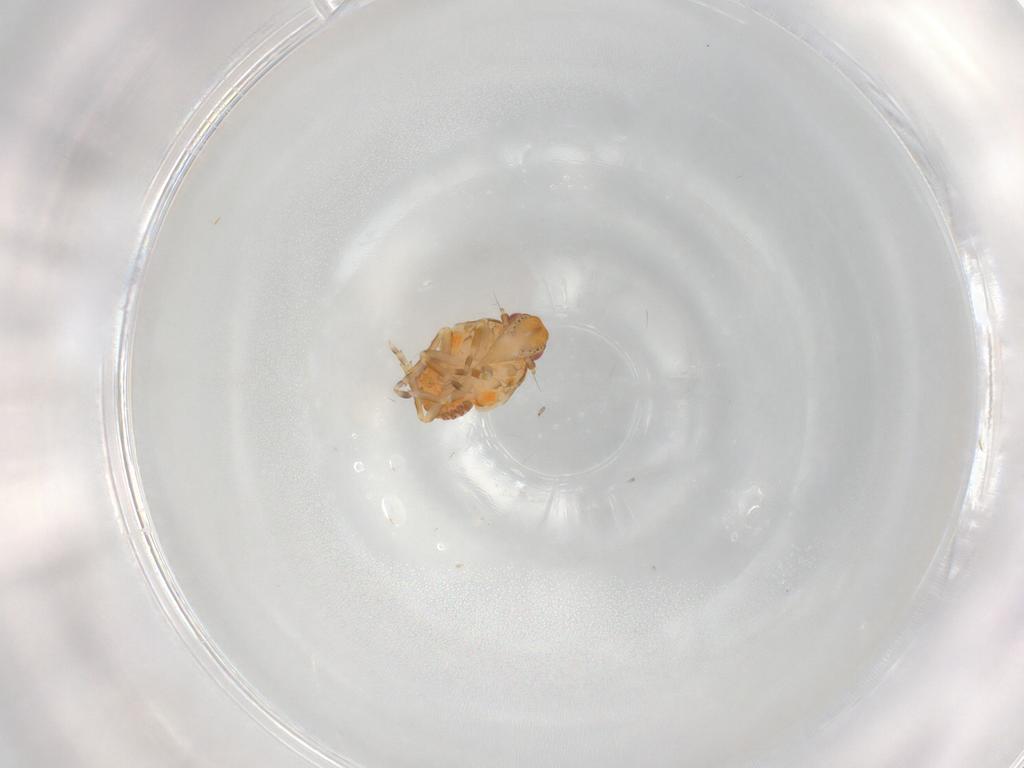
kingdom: Animalia
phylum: Arthropoda
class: Insecta
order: Hemiptera
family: Flatidae
